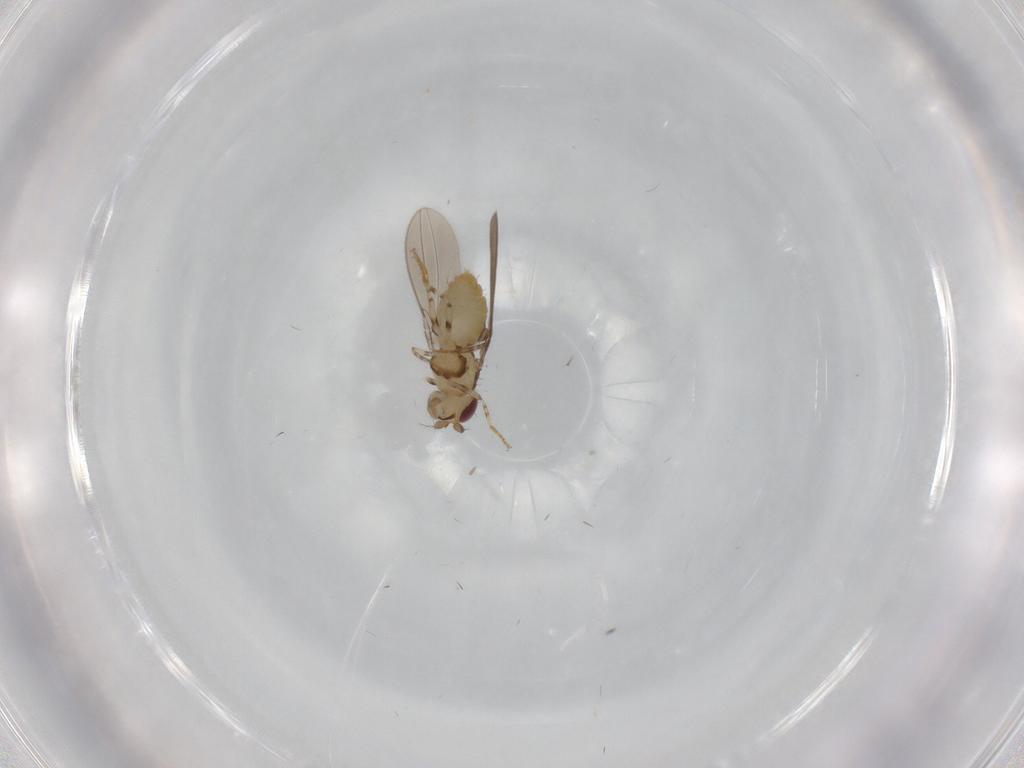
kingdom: Animalia
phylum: Arthropoda
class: Insecta
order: Diptera
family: Asteiidae
